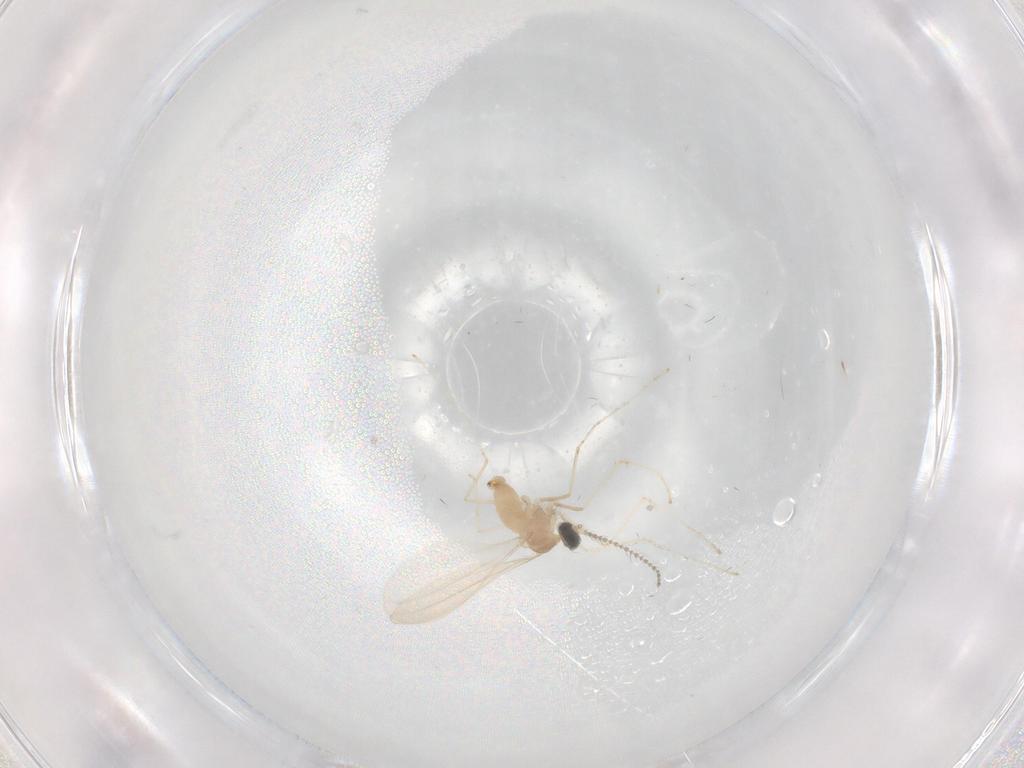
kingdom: Animalia
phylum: Arthropoda
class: Insecta
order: Diptera
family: Cecidomyiidae
